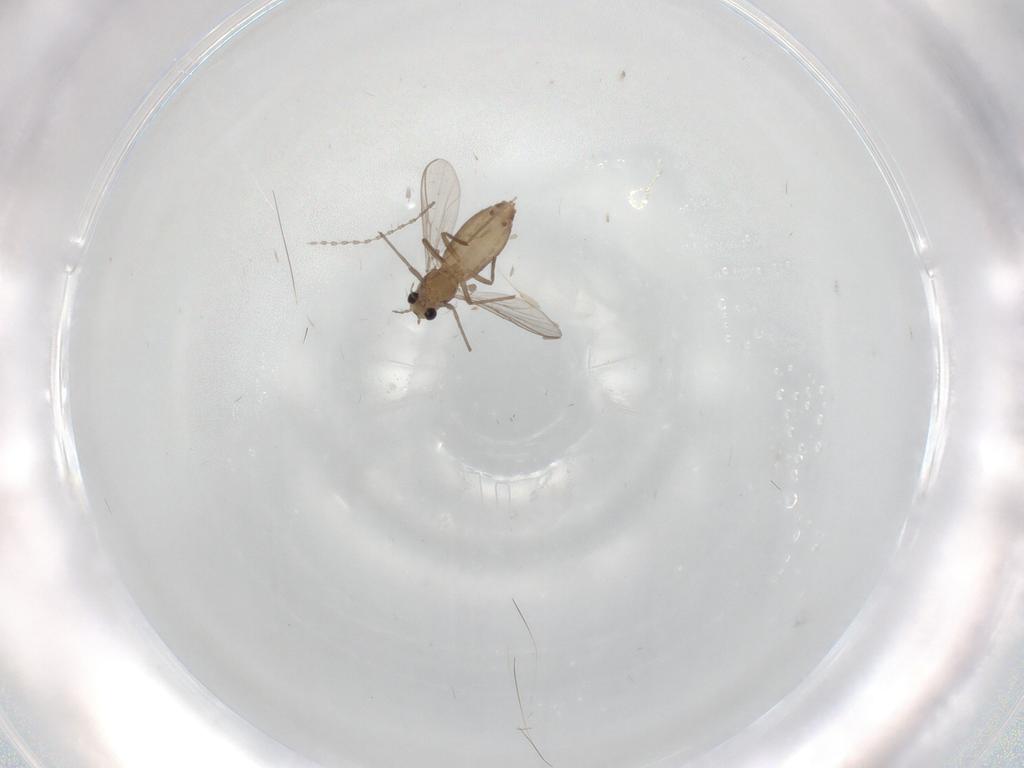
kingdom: Animalia
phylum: Arthropoda
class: Insecta
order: Diptera
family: Chironomidae
